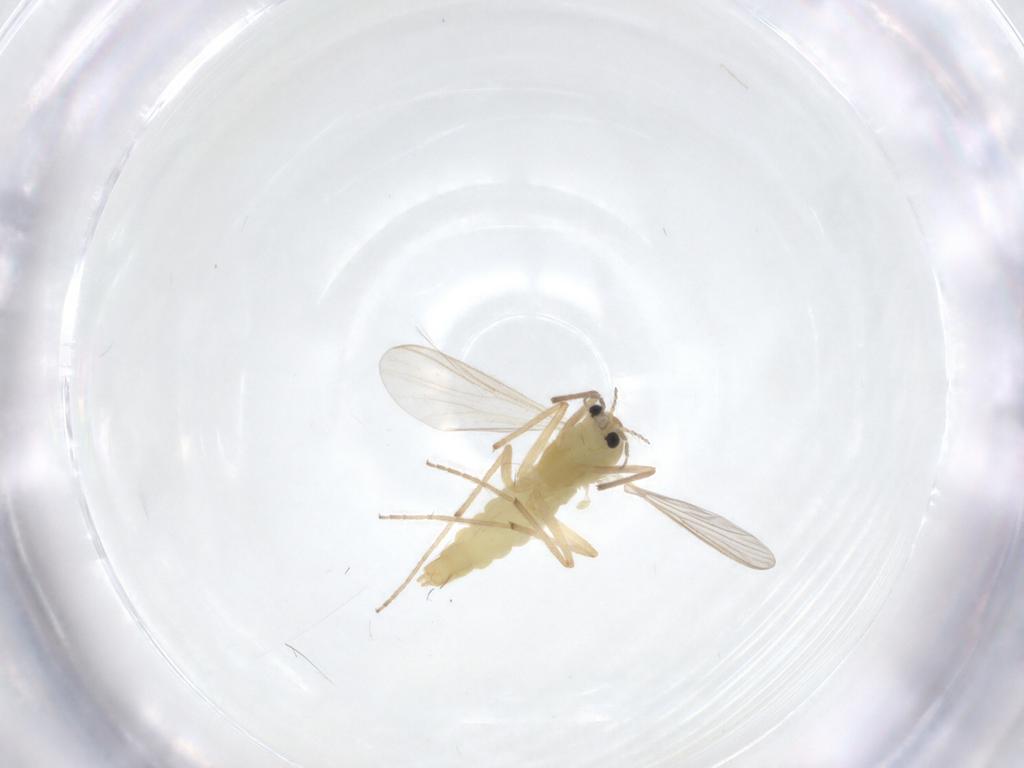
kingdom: Animalia
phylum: Arthropoda
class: Insecta
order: Diptera
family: Chironomidae
